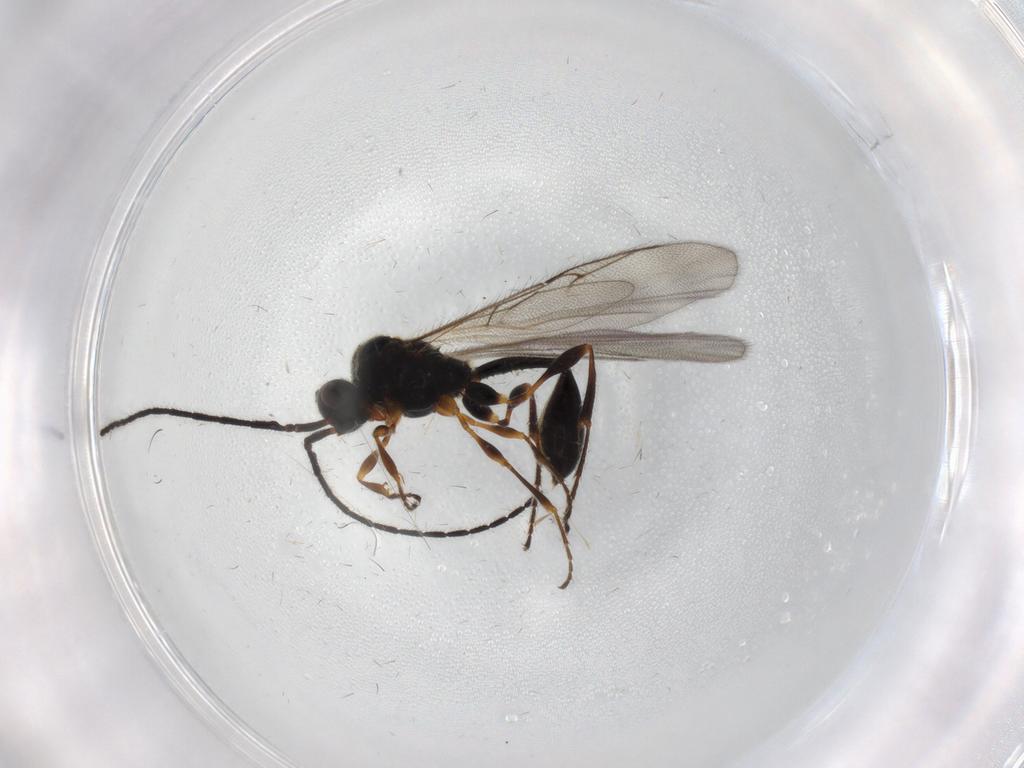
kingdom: Animalia
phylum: Arthropoda
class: Insecta
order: Hymenoptera
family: Diapriidae
